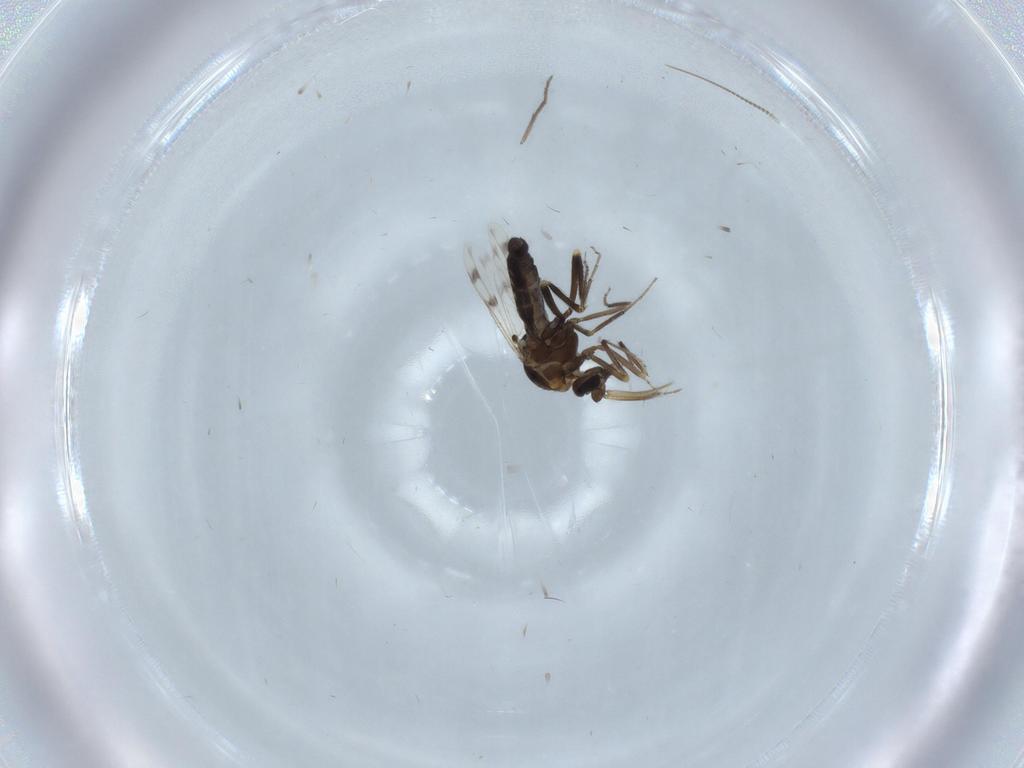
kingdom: Animalia
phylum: Arthropoda
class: Insecta
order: Diptera
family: Ceratopogonidae
